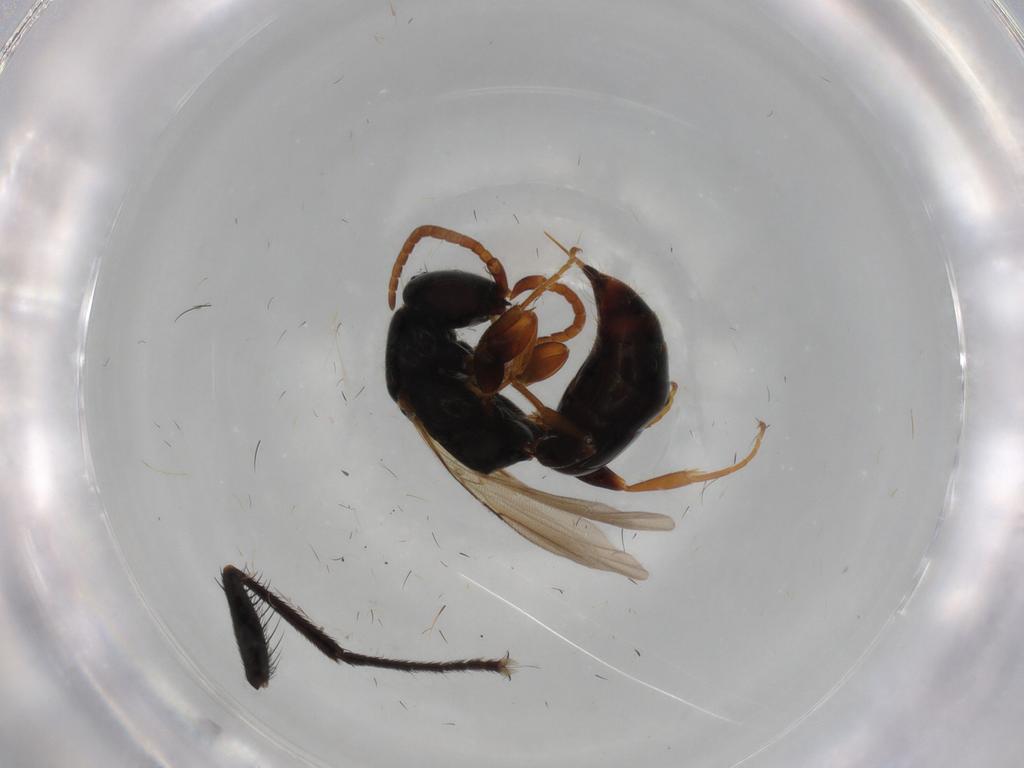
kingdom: Animalia
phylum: Arthropoda
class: Insecta
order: Hymenoptera
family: Bethylidae
